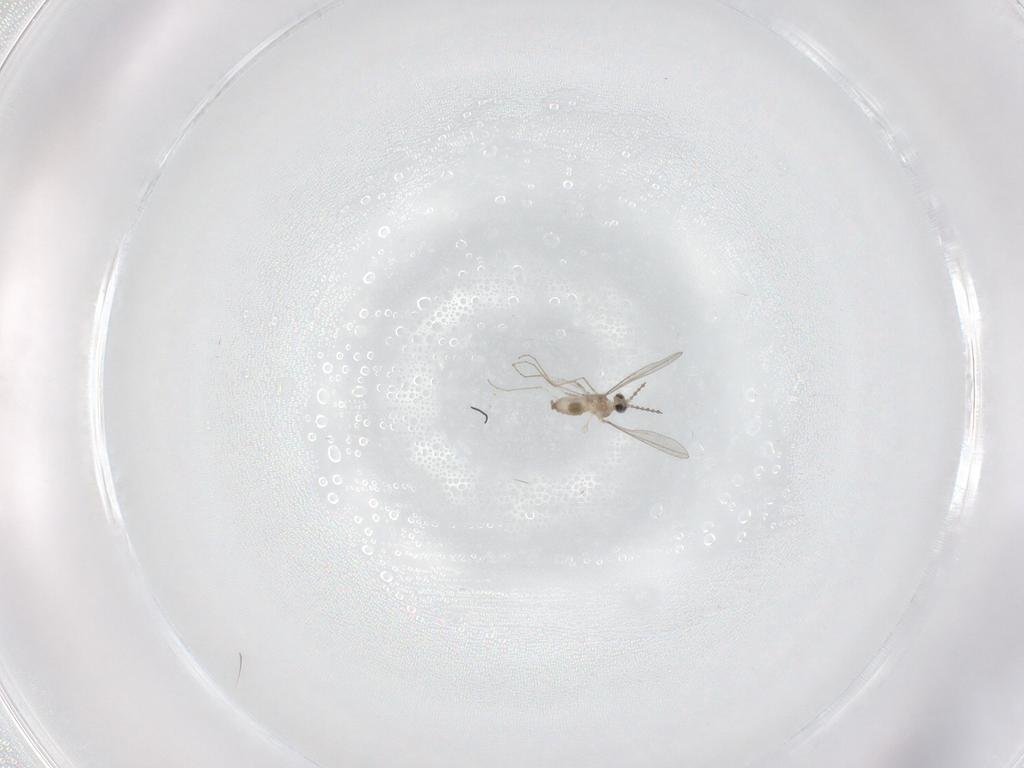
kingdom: Animalia
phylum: Arthropoda
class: Insecta
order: Diptera
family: Cecidomyiidae
